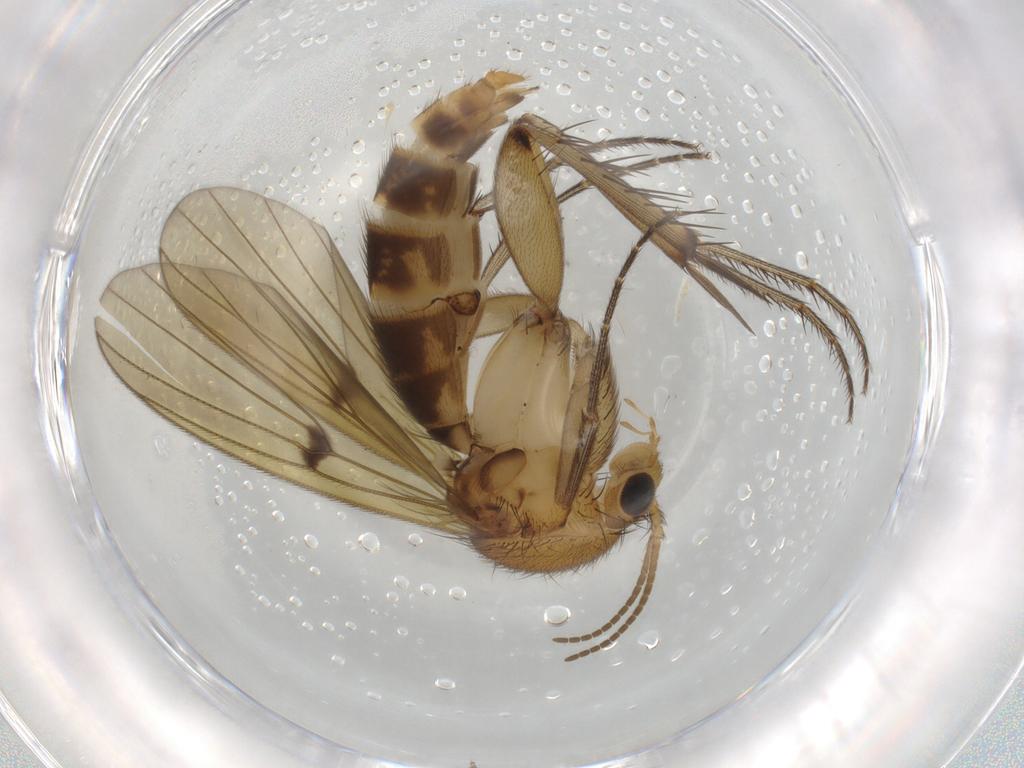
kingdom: Animalia
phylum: Arthropoda
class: Insecta
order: Diptera
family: Mycetophilidae
